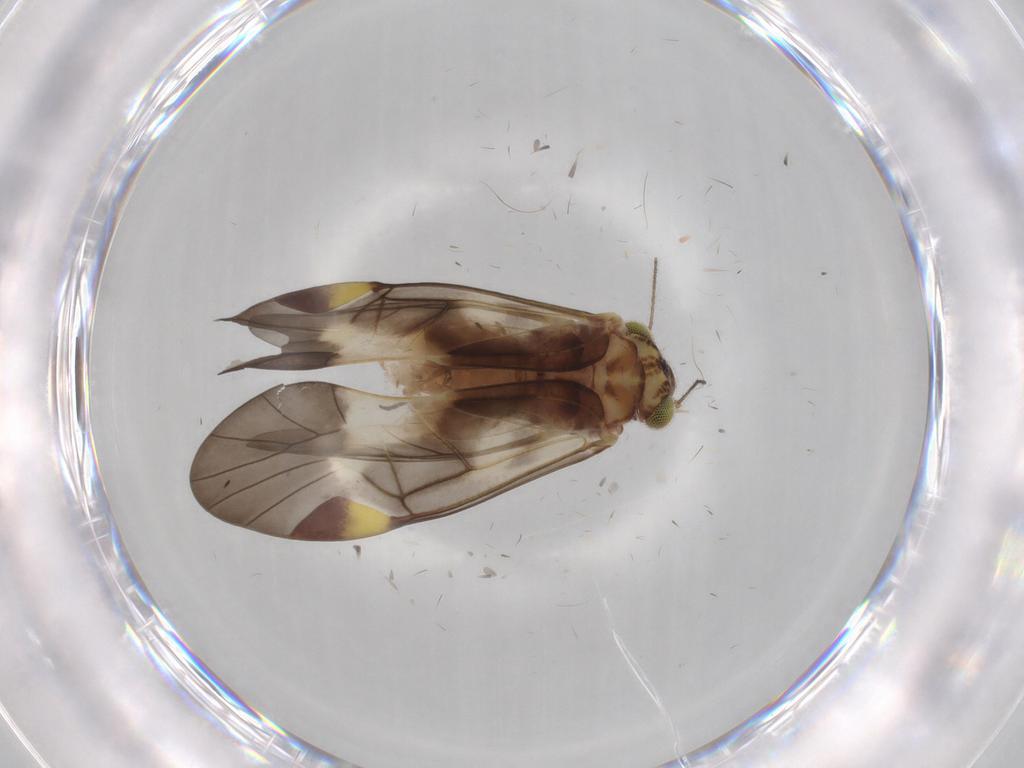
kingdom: Animalia
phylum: Arthropoda
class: Insecta
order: Psocodea
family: Psocidae
